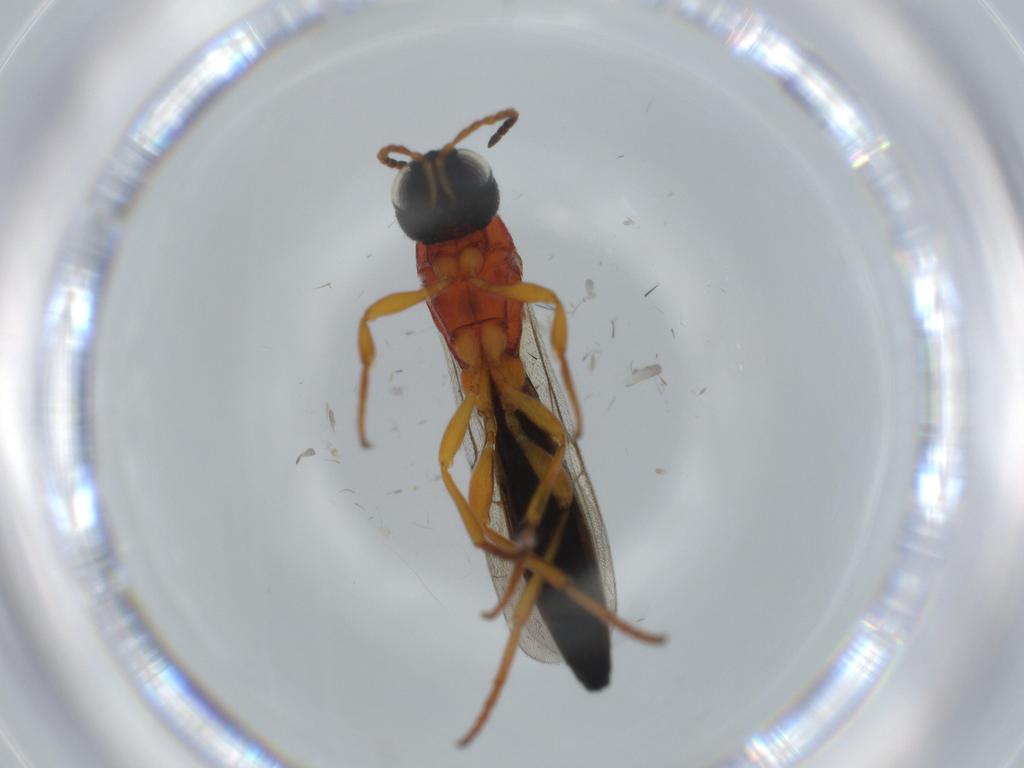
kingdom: Animalia
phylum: Arthropoda
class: Insecta
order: Hymenoptera
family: Scelionidae
